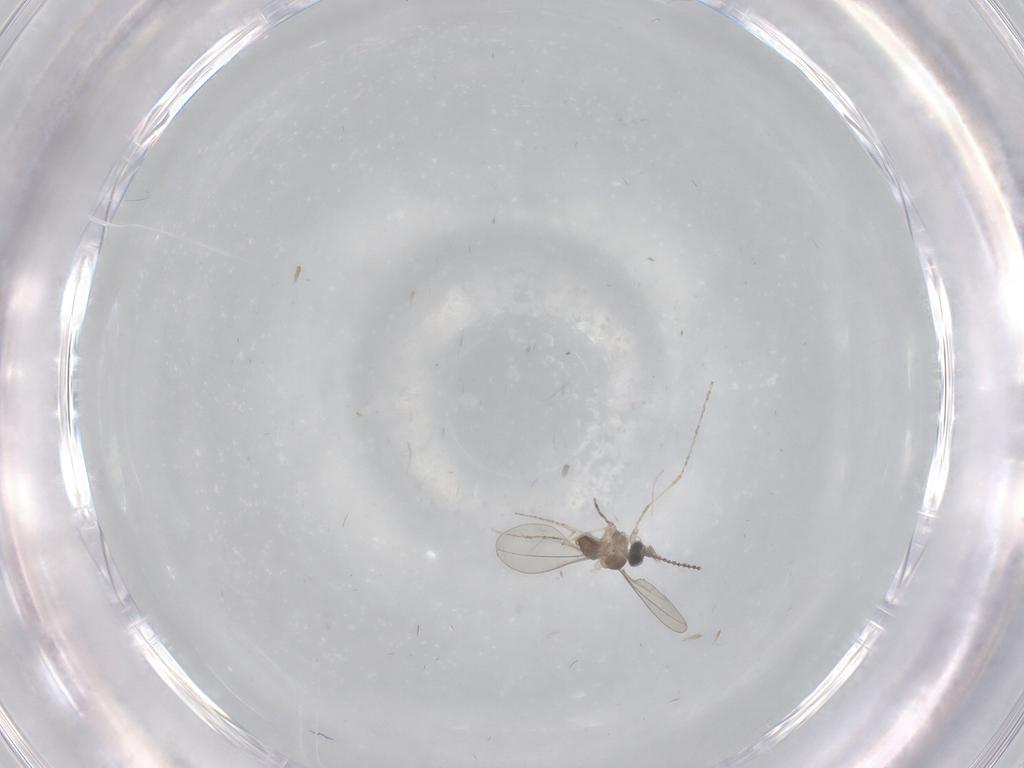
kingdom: Animalia
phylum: Arthropoda
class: Insecta
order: Diptera
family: Cecidomyiidae
